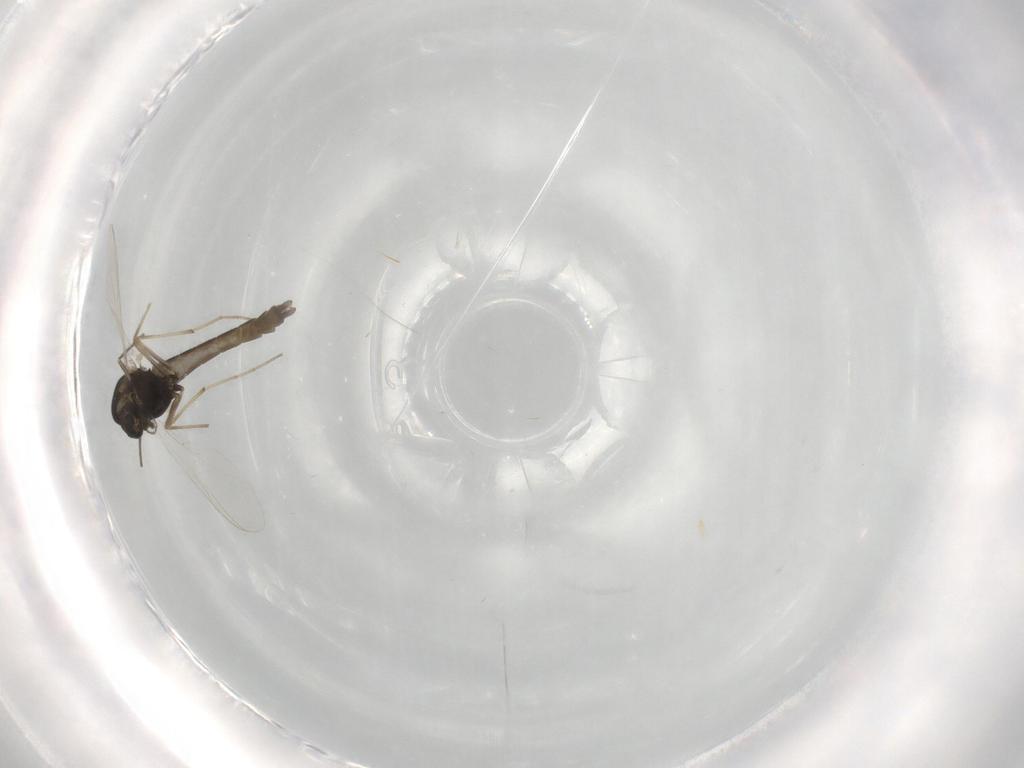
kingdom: Animalia
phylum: Arthropoda
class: Insecta
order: Diptera
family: Chironomidae
